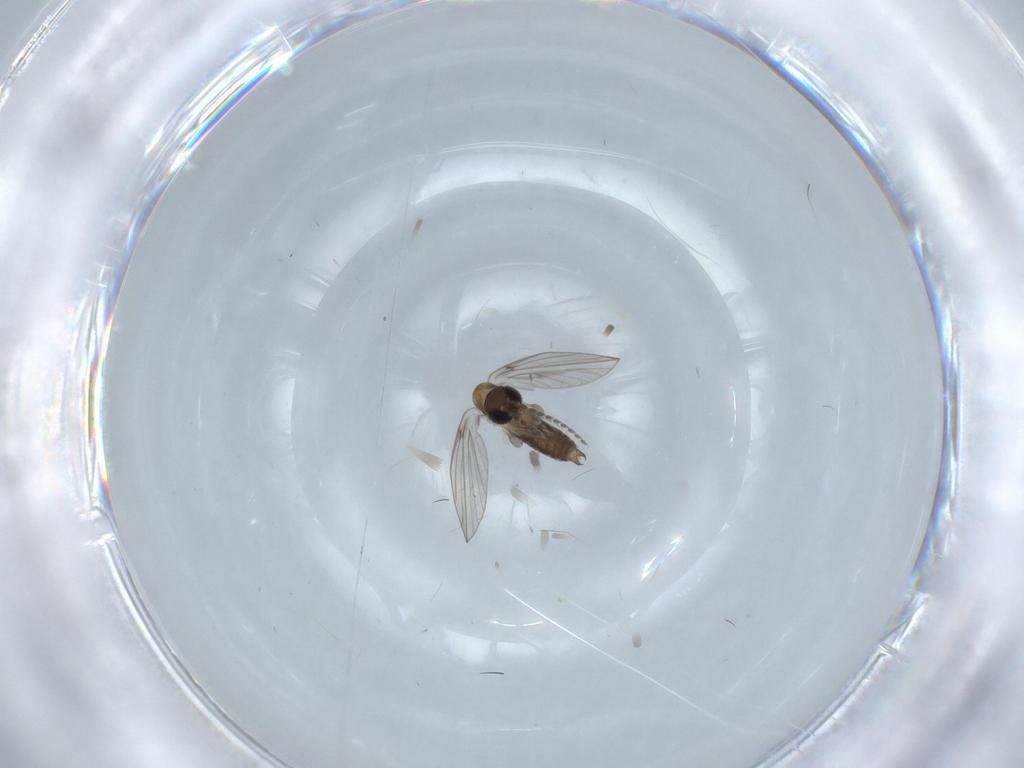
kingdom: Animalia
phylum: Arthropoda
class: Insecta
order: Diptera
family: Psychodidae
